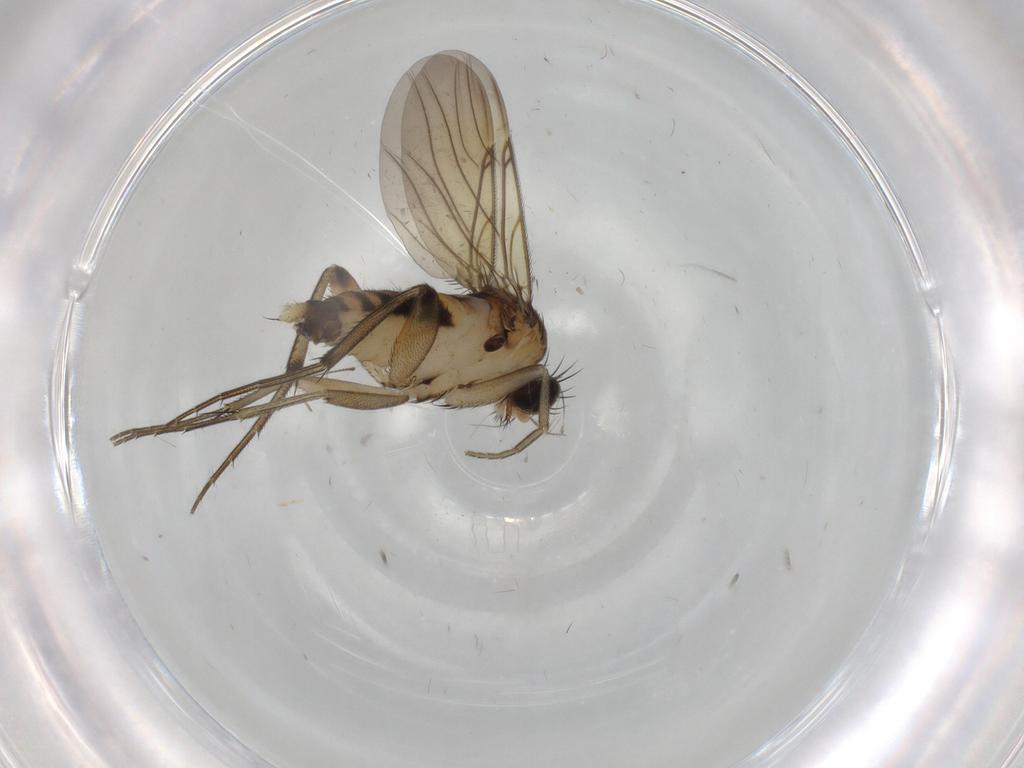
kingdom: Animalia
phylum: Arthropoda
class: Insecta
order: Diptera
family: Phoridae
